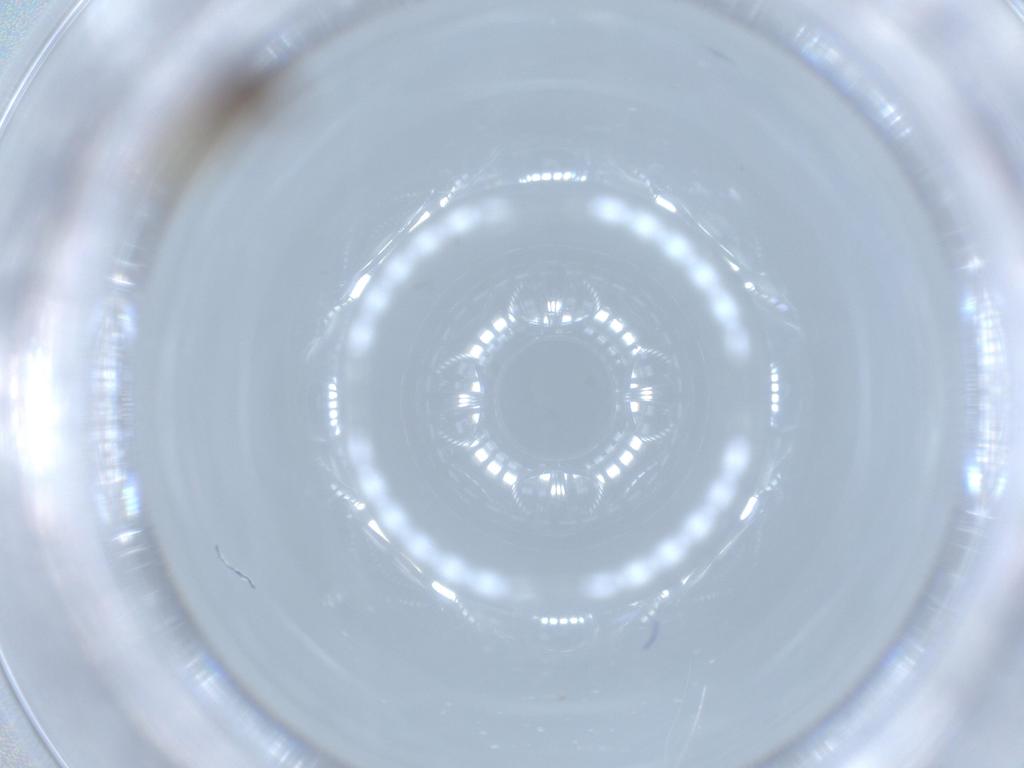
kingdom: Animalia
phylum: Arthropoda
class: Insecta
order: Psocodea
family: Lepidopsocidae
